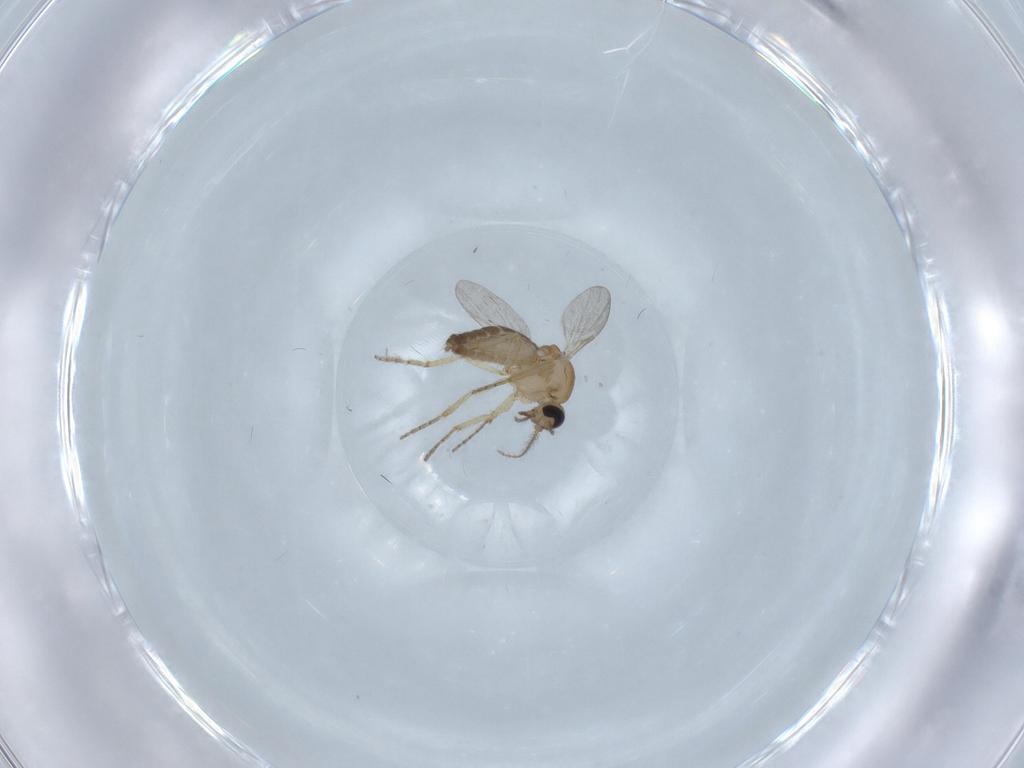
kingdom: Animalia
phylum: Arthropoda
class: Insecta
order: Diptera
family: Ceratopogonidae
